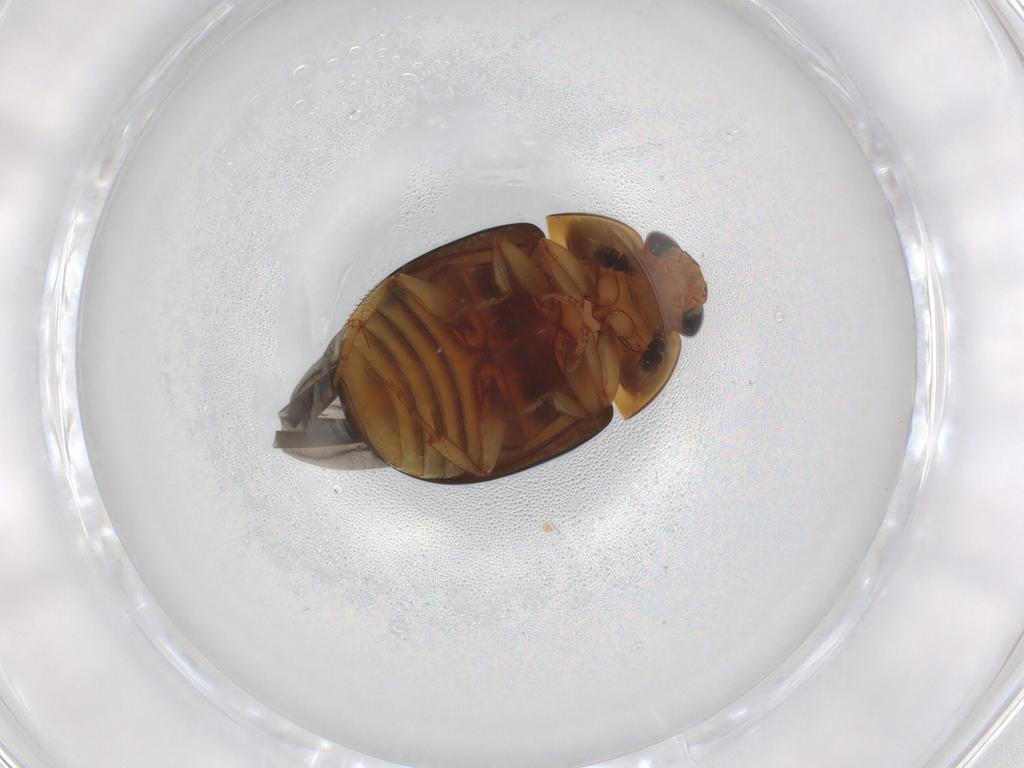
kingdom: Animalia
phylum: Arthropoda
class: Insecta
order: Coleoptera
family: Nitidulidae
